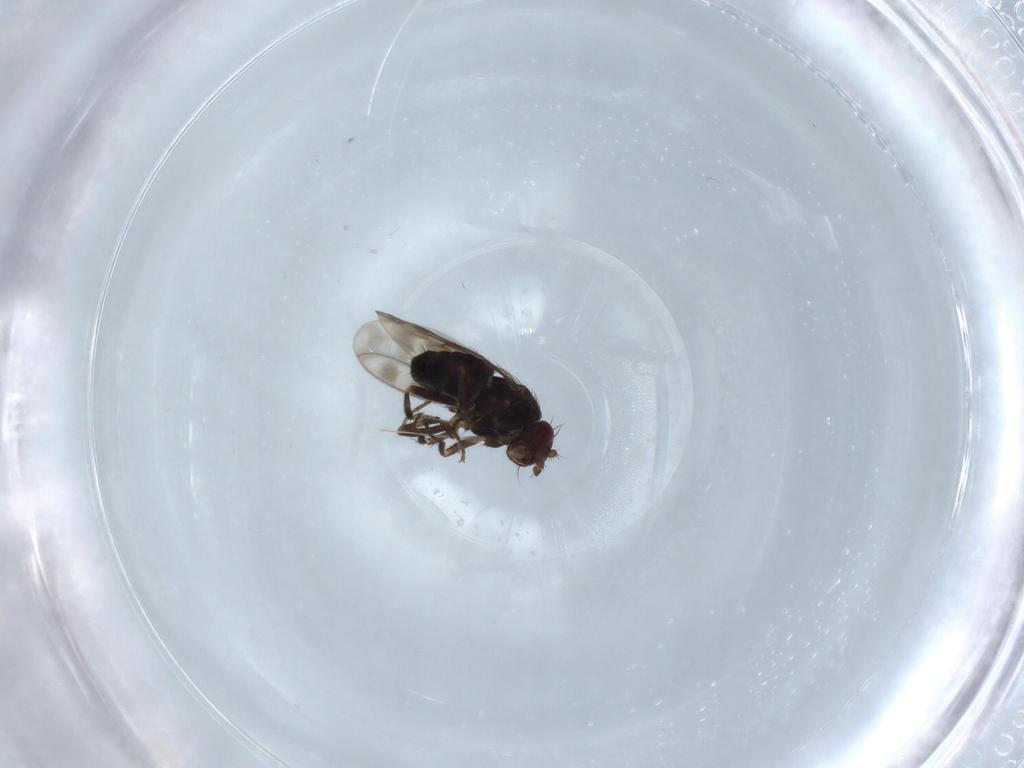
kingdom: Animalia
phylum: Arthropoda
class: Insecta
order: Diptera
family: Sphaeroceridae
